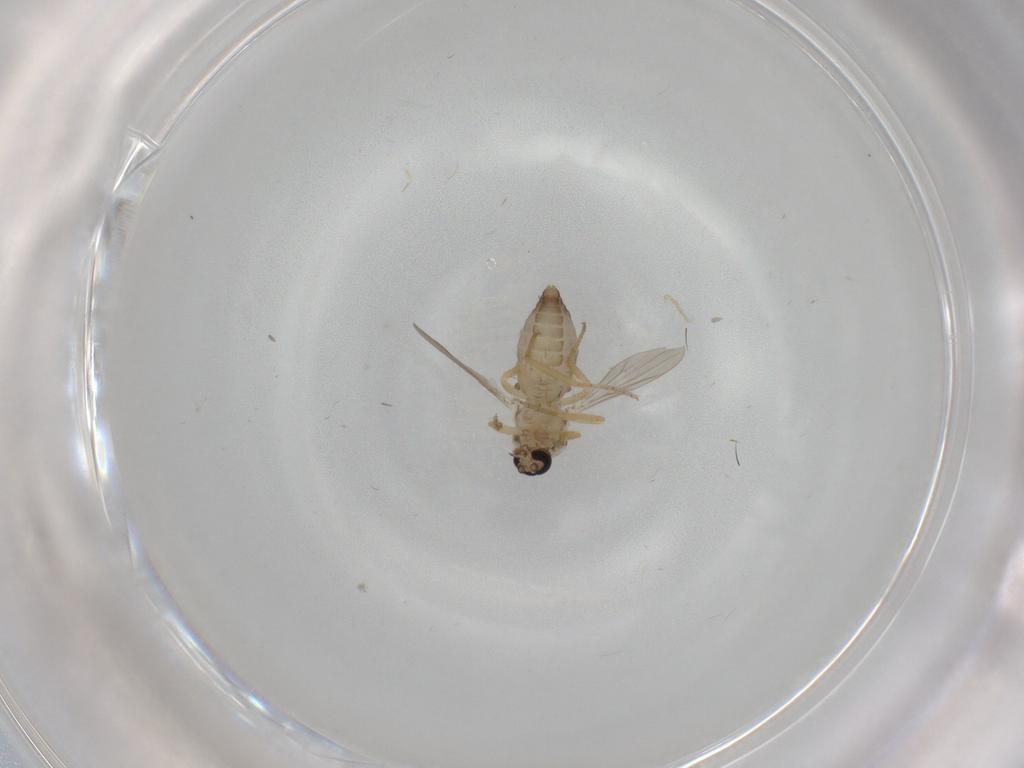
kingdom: Animalia
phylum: Arthropoda
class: Insecta
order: Diptera
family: Ceratopogonidae
